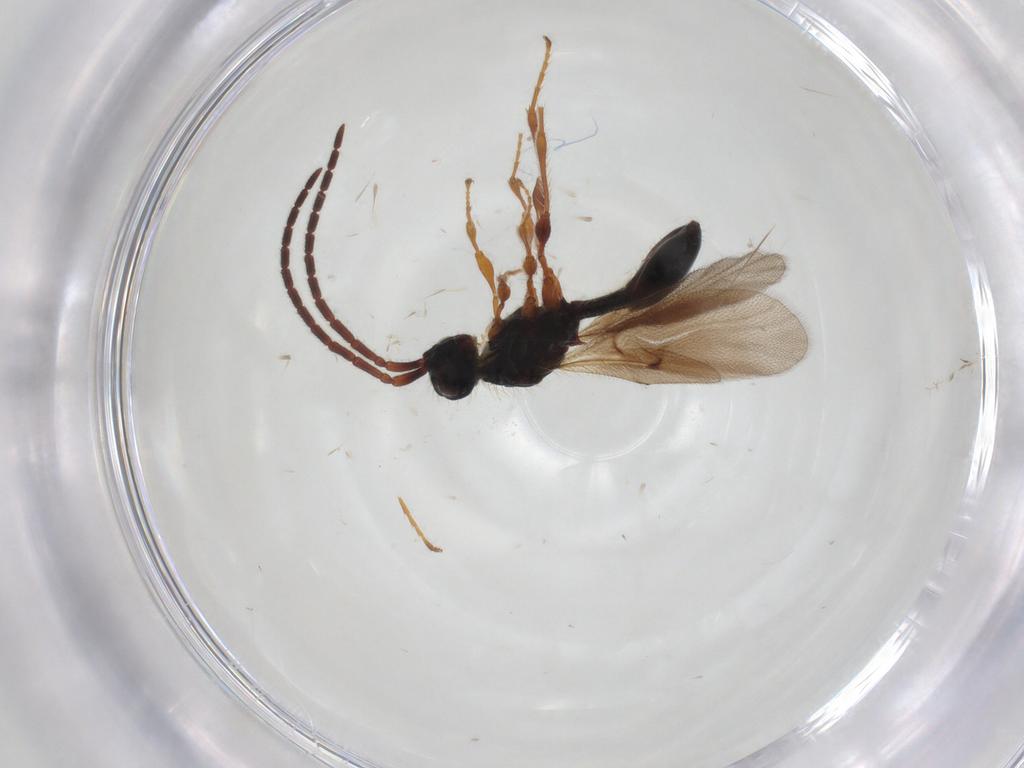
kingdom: Animalia
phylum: Arthropoda
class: Insecta
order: Hymenoptera
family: Diapriidae
